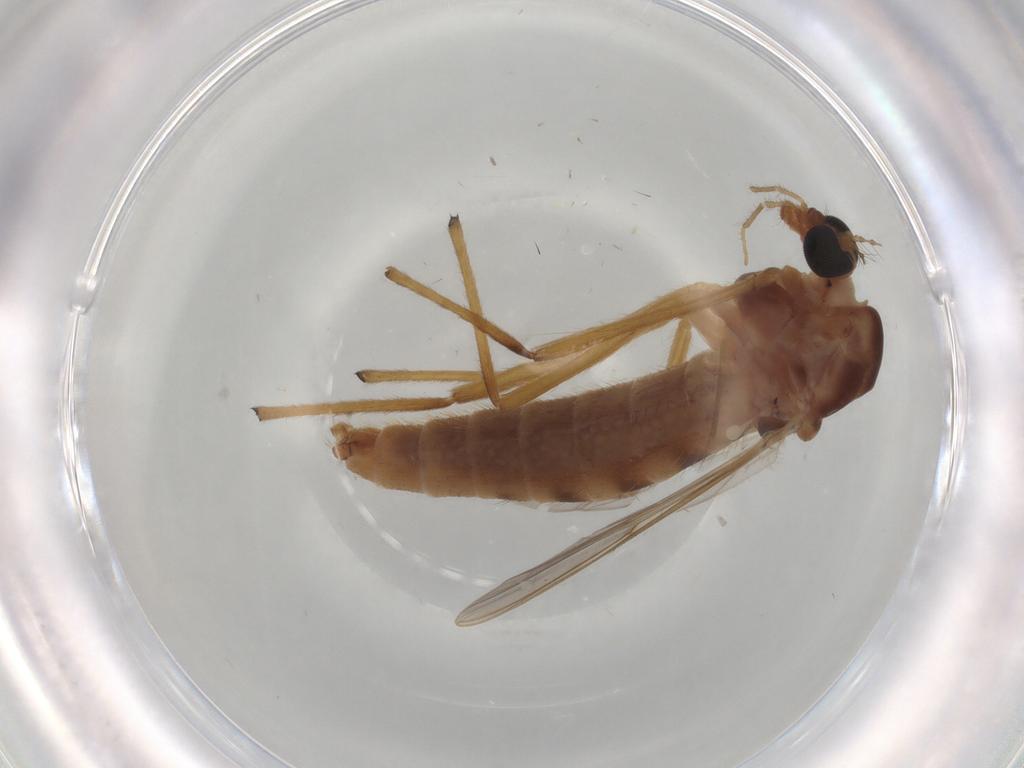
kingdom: Animalia
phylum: Arthropoda
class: Insecta
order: Diptera
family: Chironomidae
